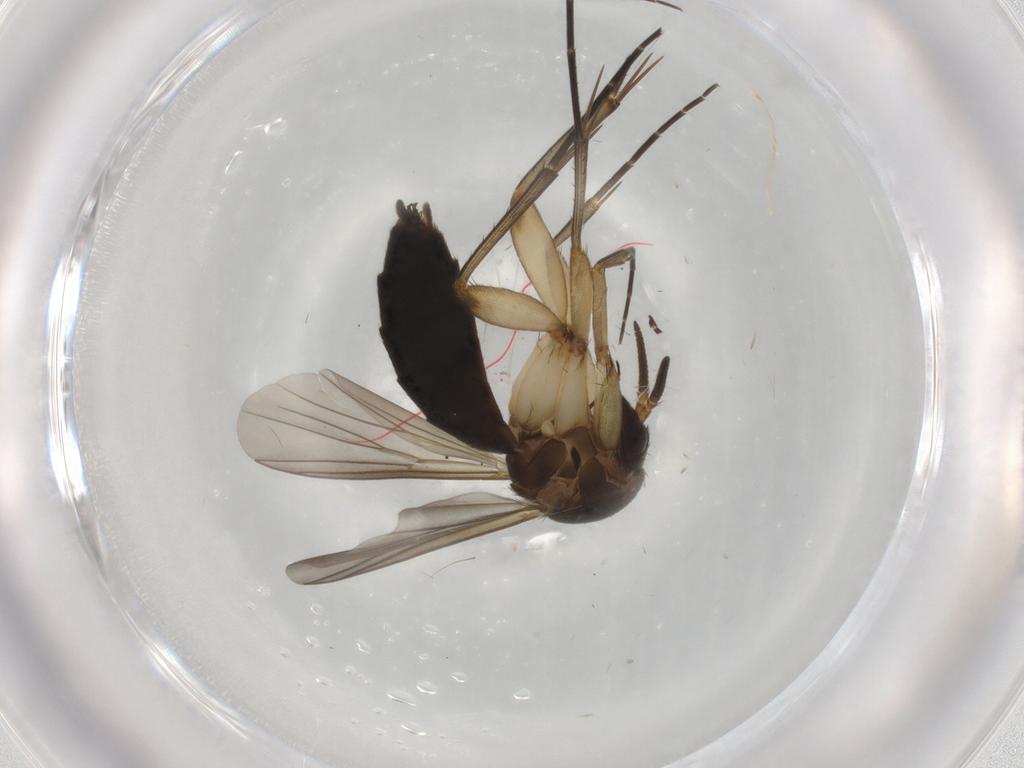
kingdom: Animalia
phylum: Arthropoda
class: Insecta
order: Diptera
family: Mycetophilidae
